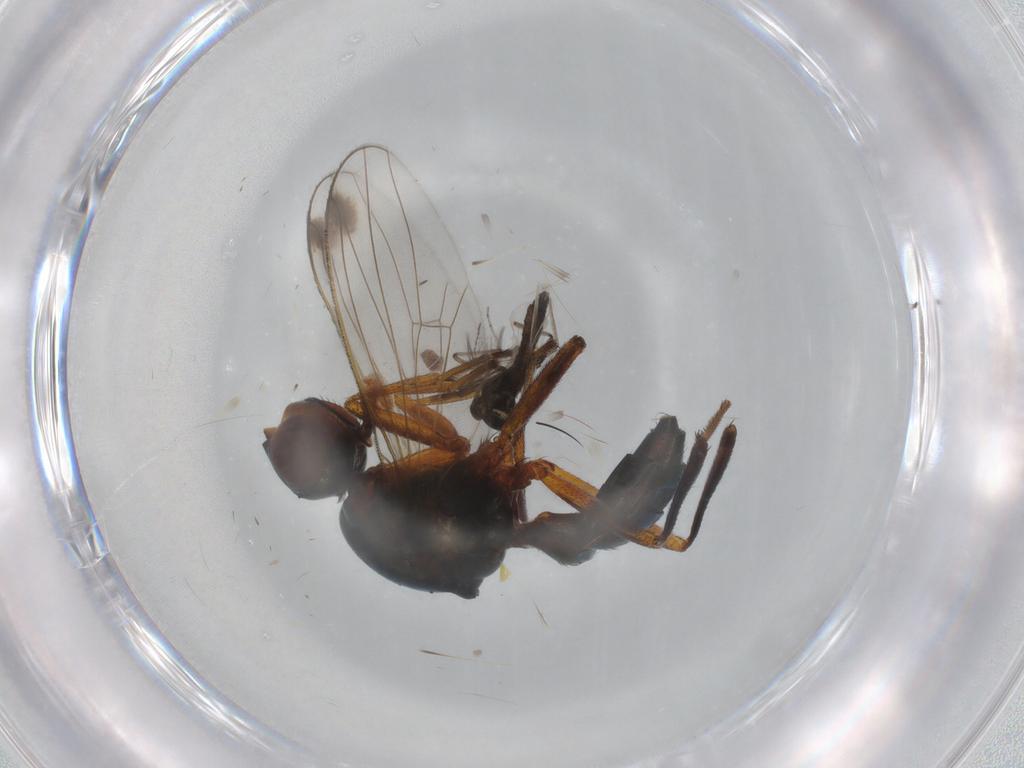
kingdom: Animalia
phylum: Arthropoda
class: Insecta
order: Diptera
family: Ceratopogonidae
